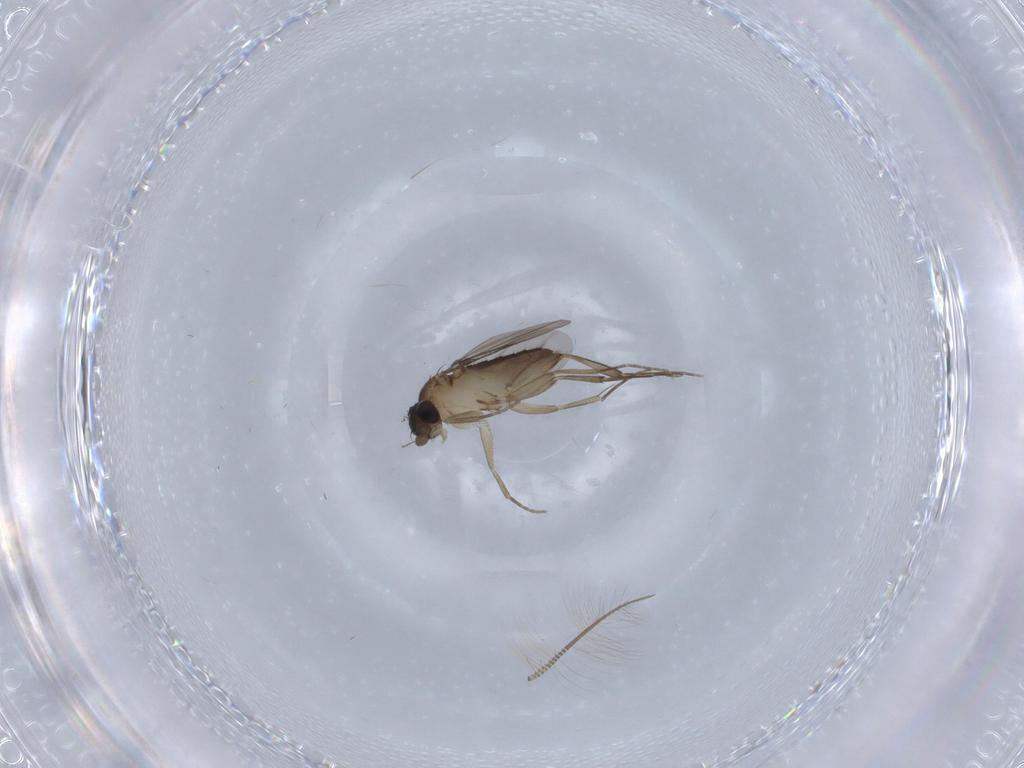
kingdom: Animalia
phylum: Arthropoda
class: Insecta
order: Diptera
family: Phoridae
